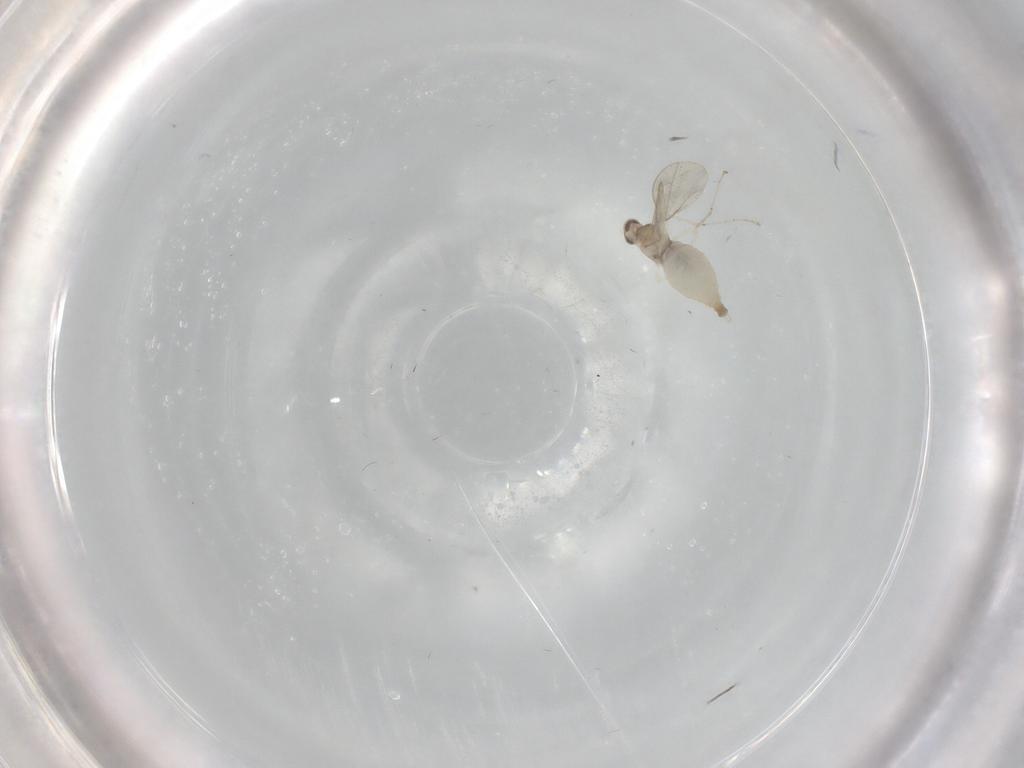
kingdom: Animalia
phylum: Arthropoda
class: Insecta
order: Diptera
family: Cecidomyiidae
